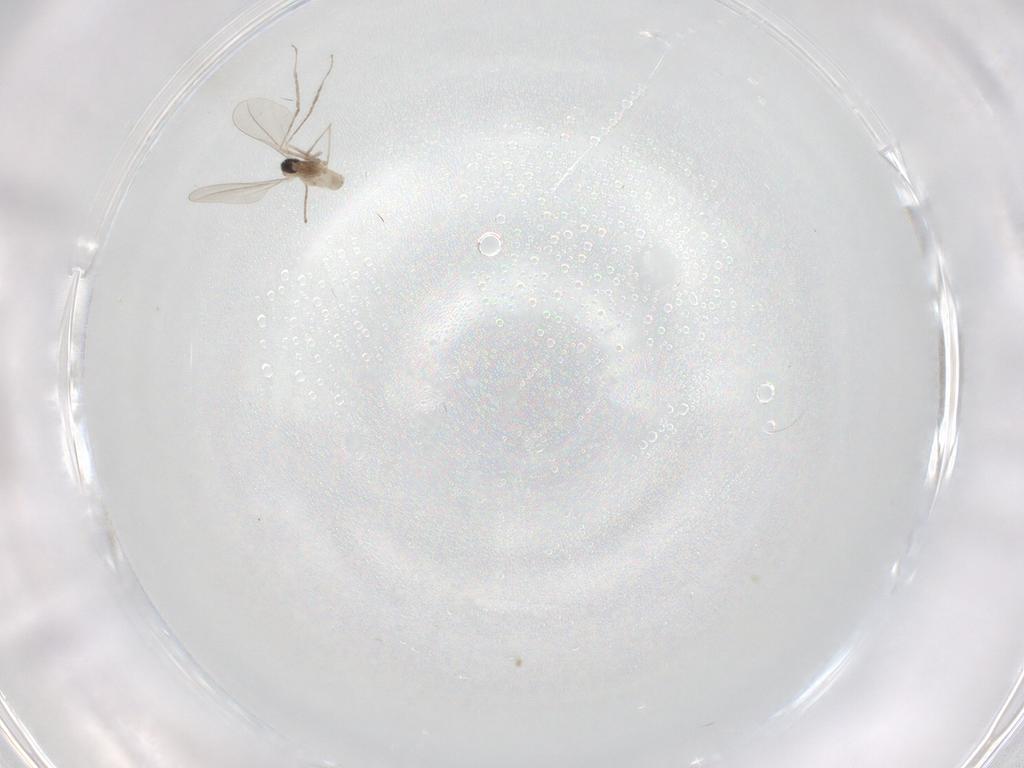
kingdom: Animalia
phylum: Arthropoda
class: Insecta
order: Diptera
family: Cecidomyiidae
